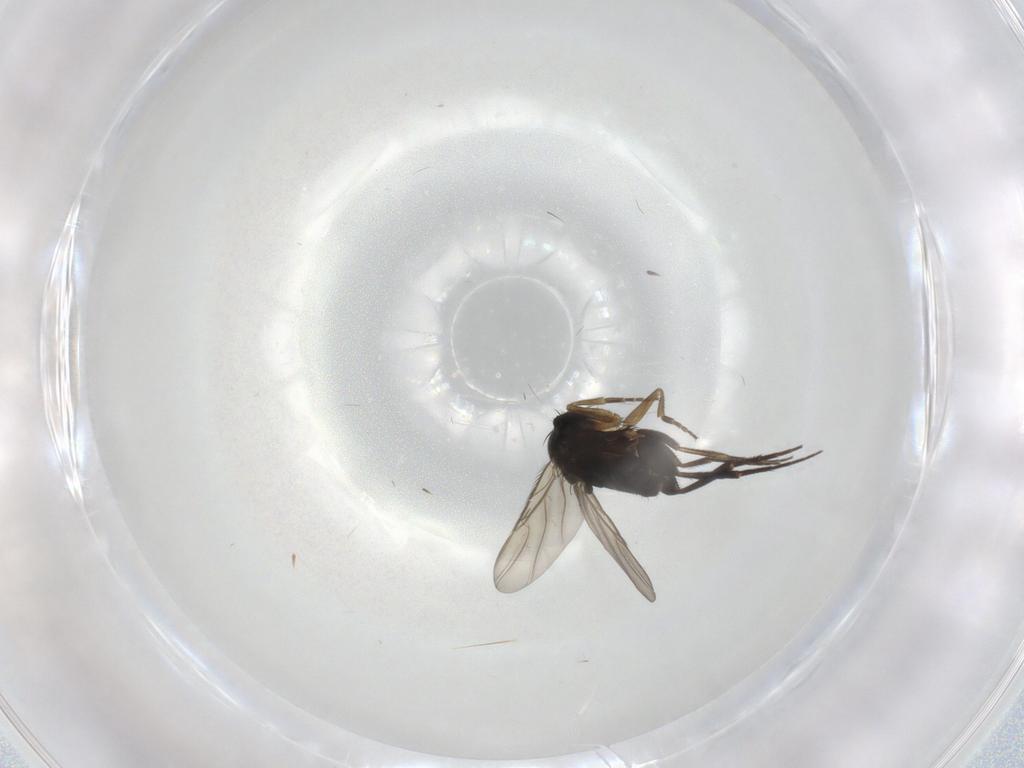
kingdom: Animalia
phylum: Arthropoda
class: Insecta
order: Diptera
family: Phoridae
